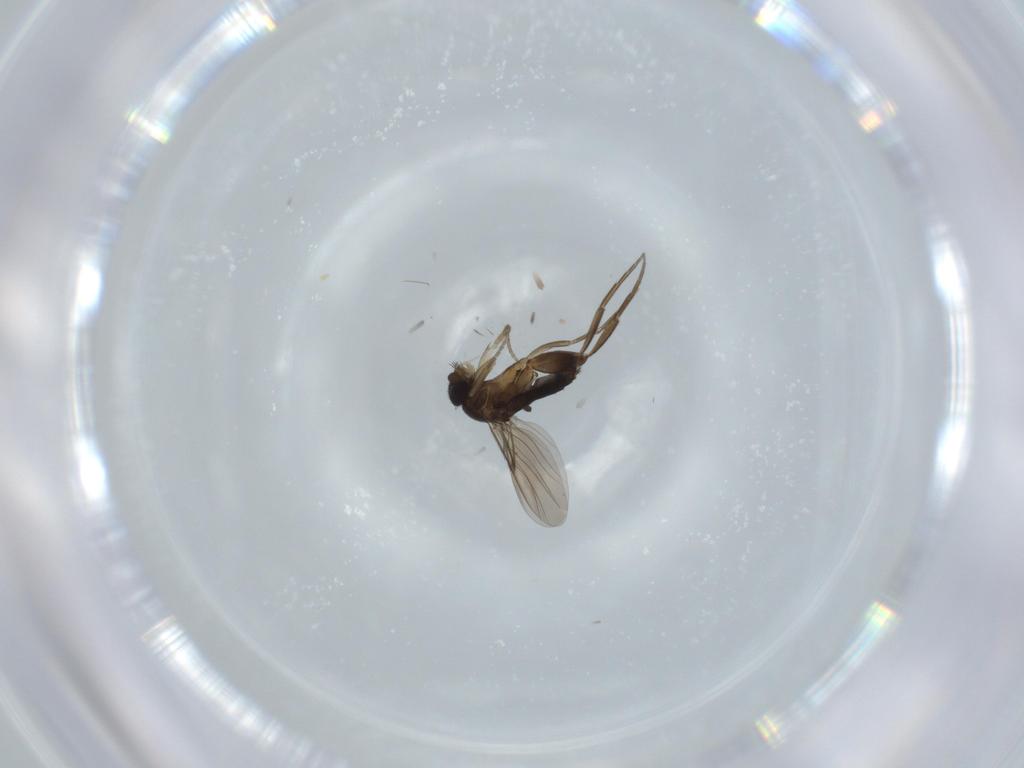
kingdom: Animalia
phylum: Arthropoda
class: Insecta
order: Diptera
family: Phoridae
